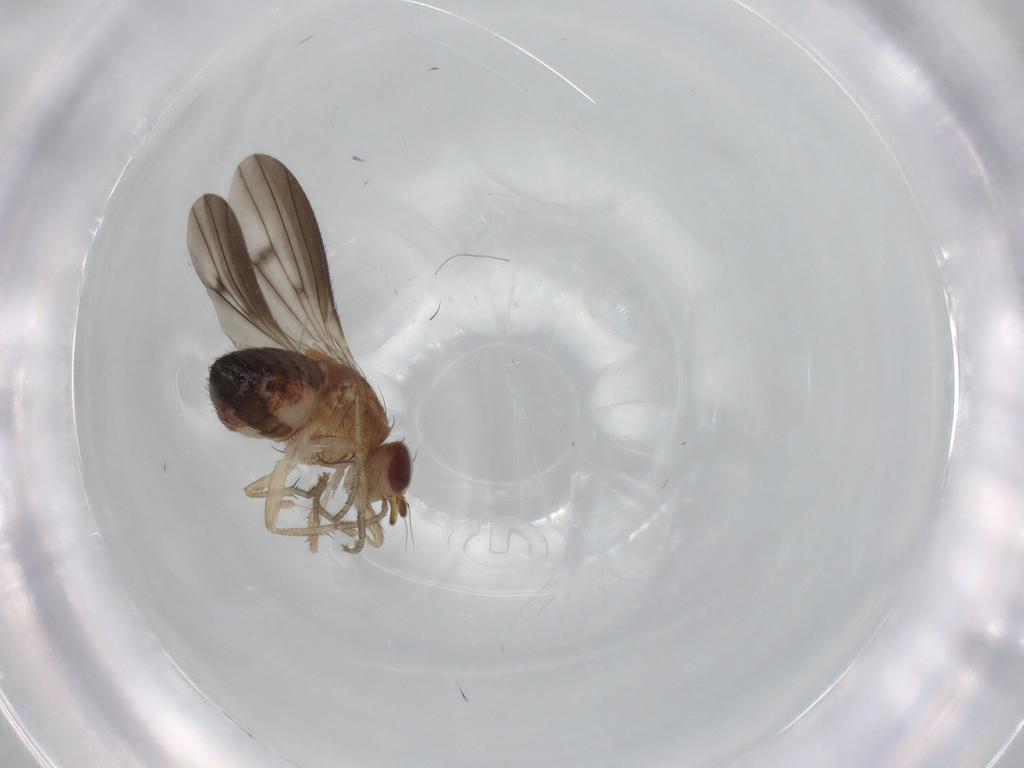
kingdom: Animalia
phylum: Arthropoda
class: Insecta
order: Diptera
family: Heleomyzidae
